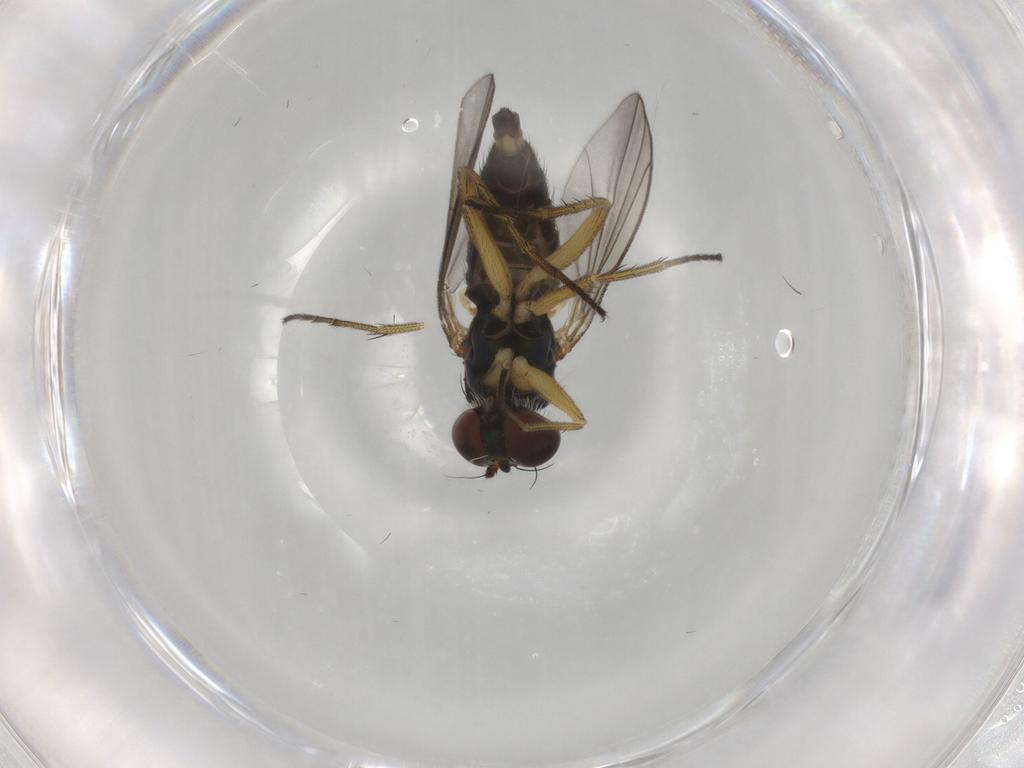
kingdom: Animalia
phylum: Arthropoda
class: Insecta
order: Diptera
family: Dolichopodidae
